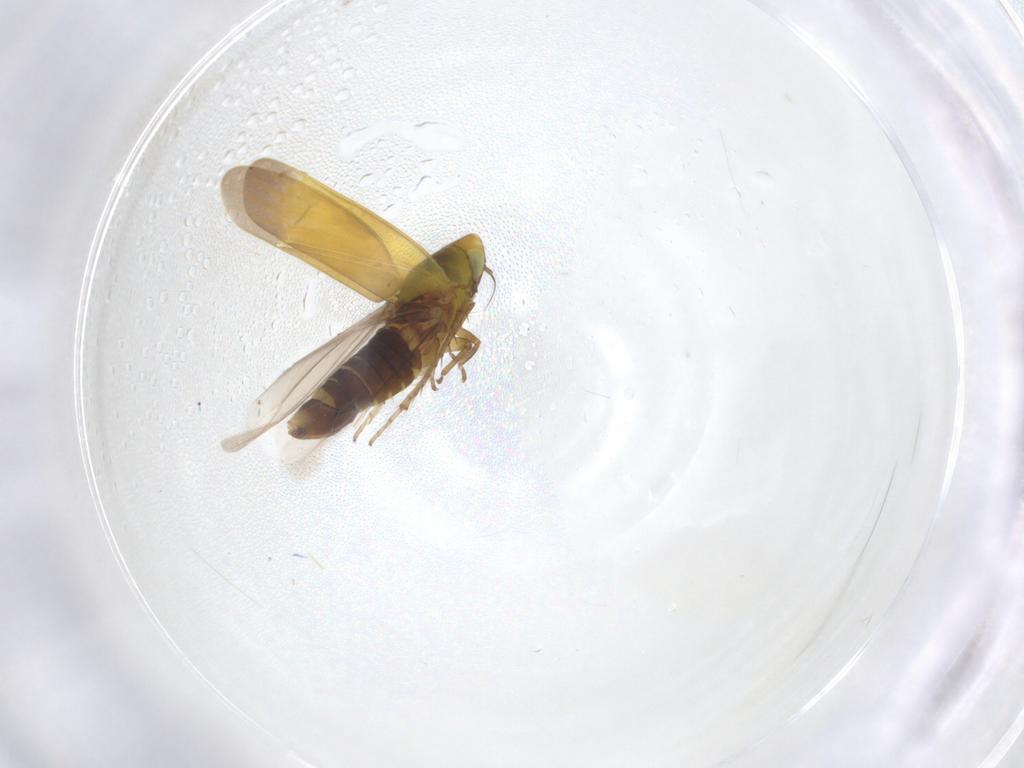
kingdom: Animalia
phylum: Arthropoda
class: Insecta
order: Hemiptera
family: Cicadellidae
